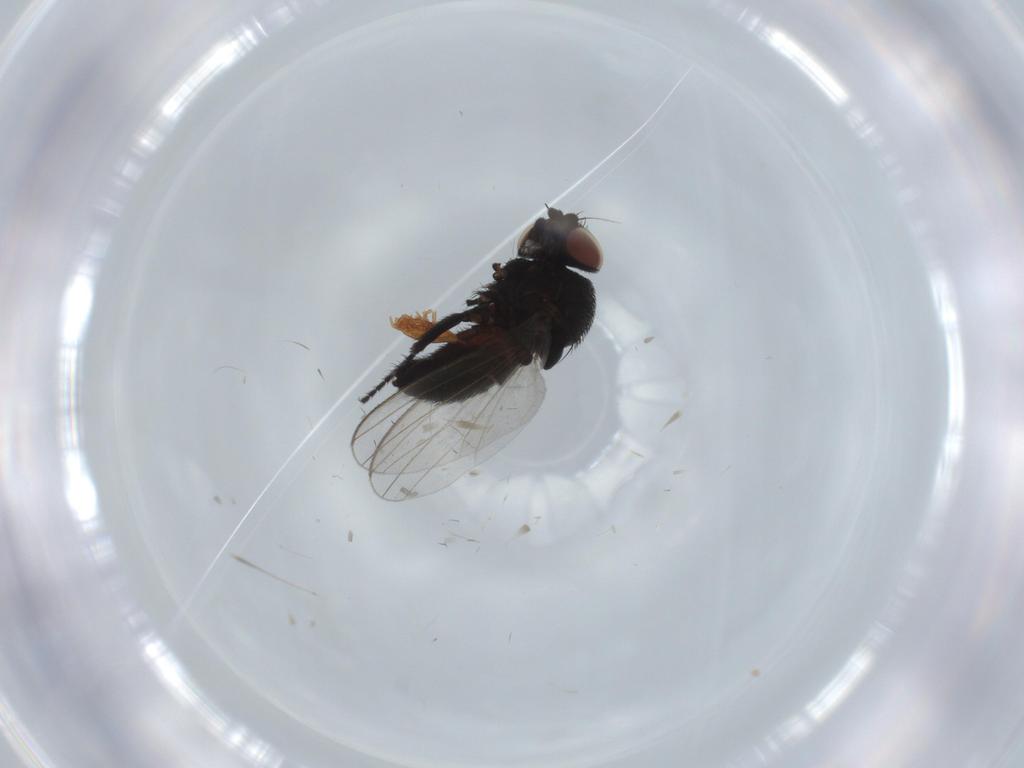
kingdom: Animalia
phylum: Arthropoda
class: Insecta
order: Diptera
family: Milichiidae
